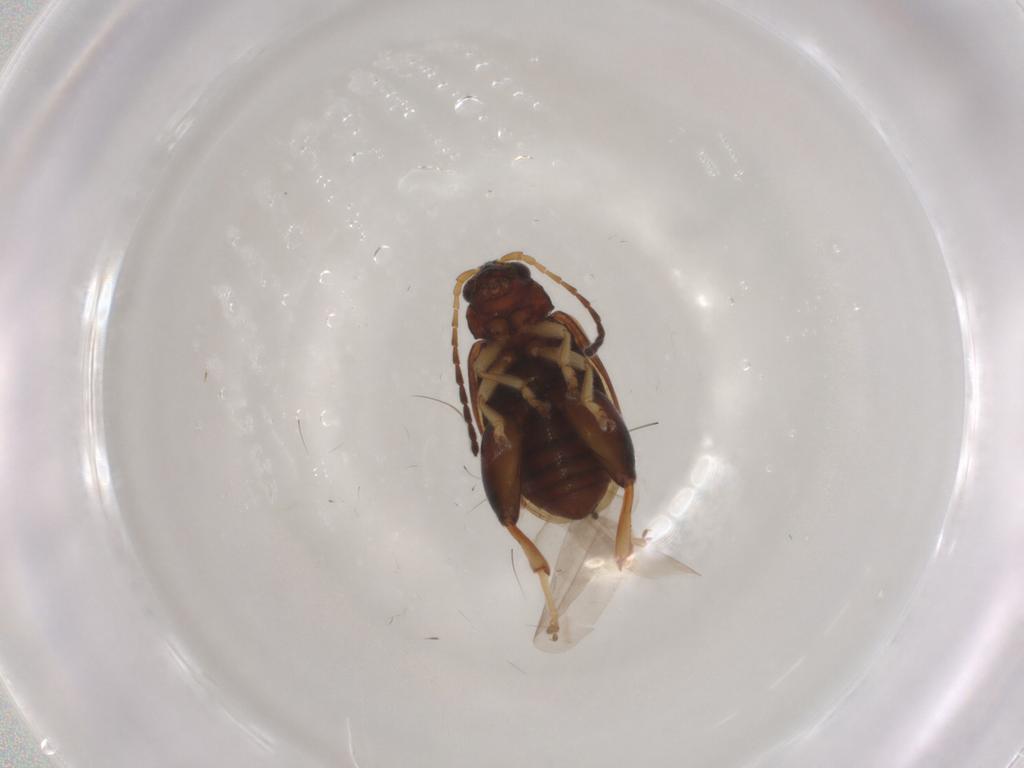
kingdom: Animalia
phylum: Arthropoda
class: Insecta
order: Coleoptera
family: Chrysomelidae
